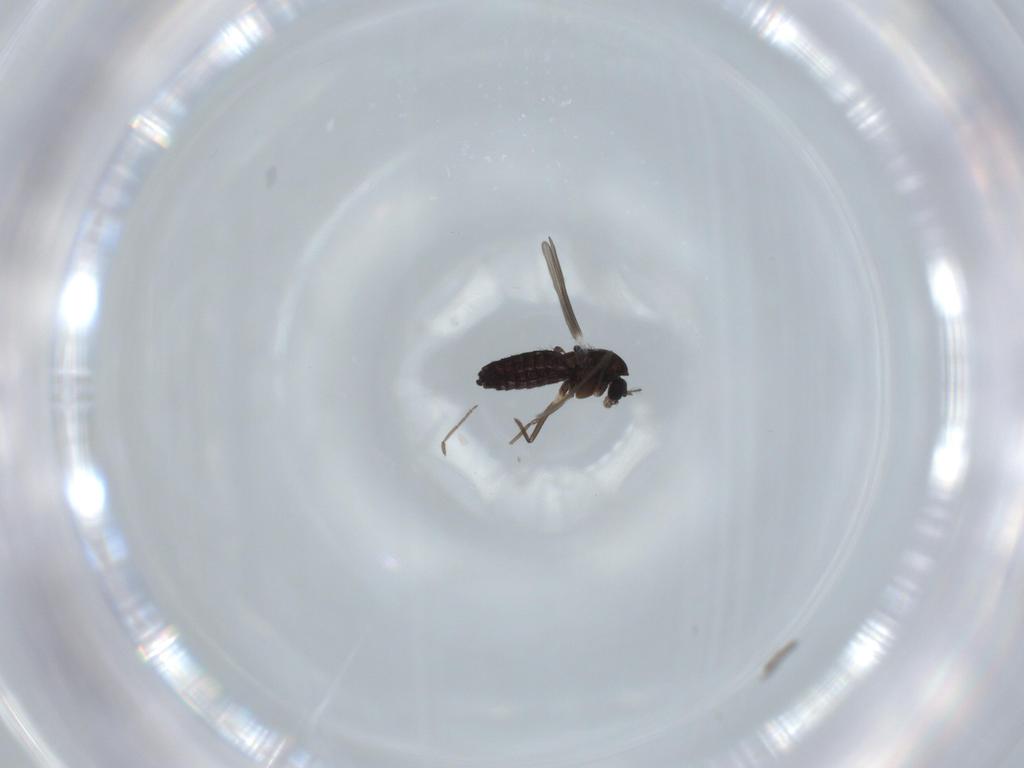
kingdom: Animalia
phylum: Arthropoda
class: Insecta
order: Diptera
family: Chironomidae
